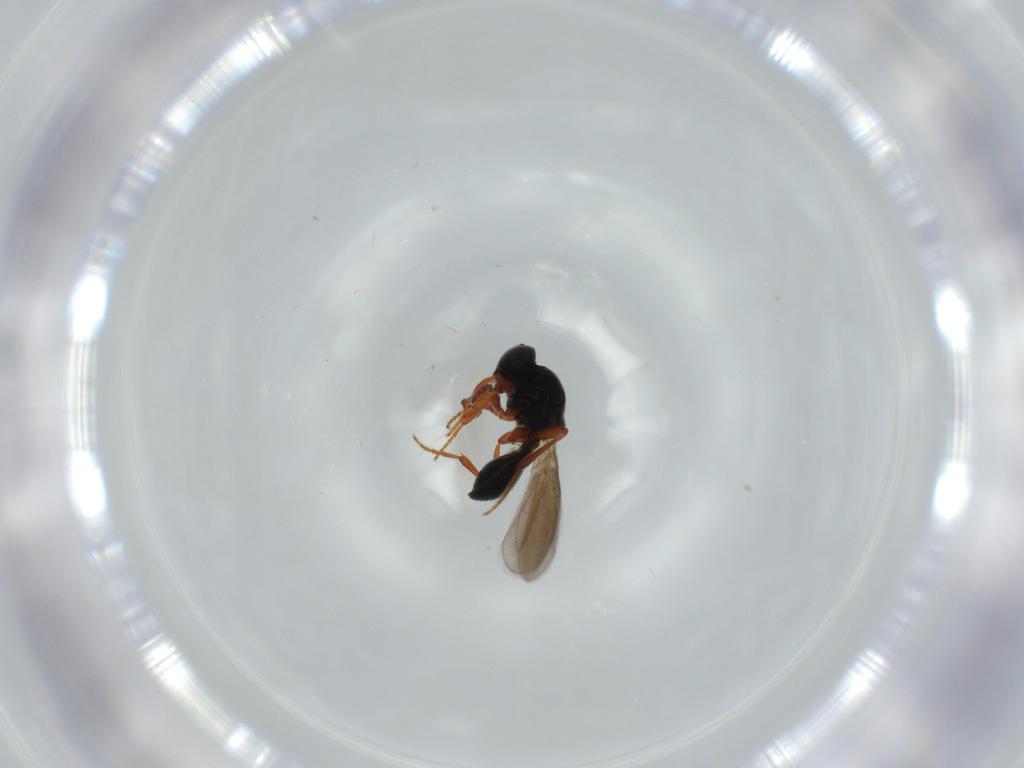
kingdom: Animalia
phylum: Arthropoda
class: Insecta
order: Hymenoptera
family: Platygastridae
